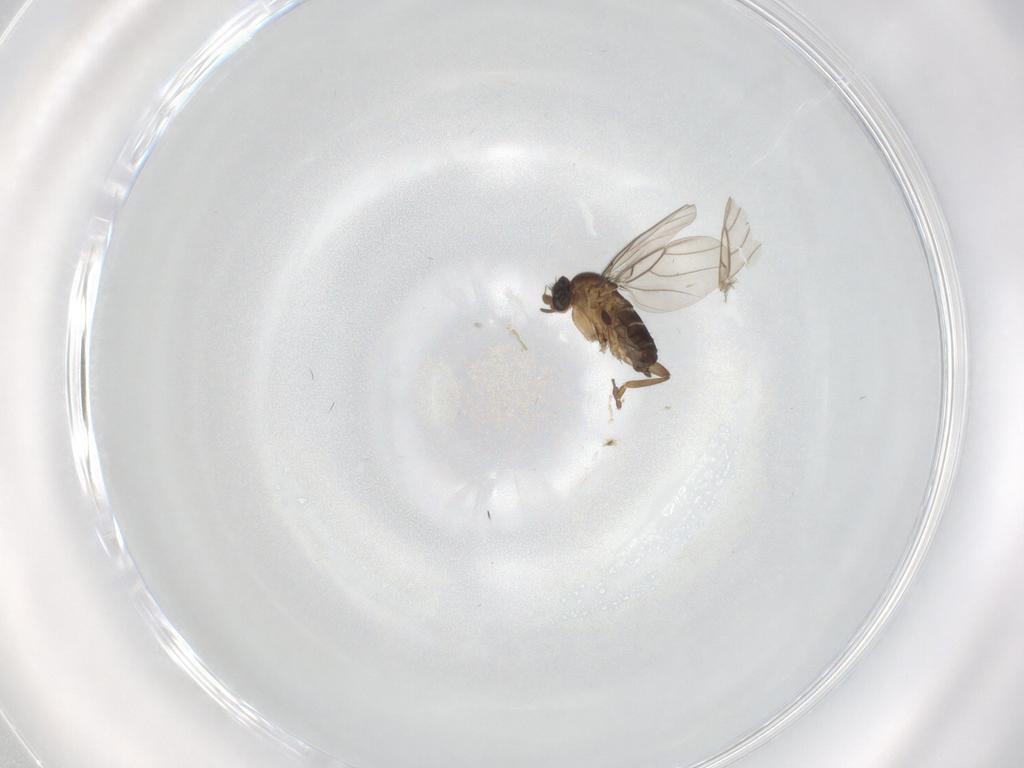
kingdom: Animalia
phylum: Arthropoda
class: Insecta
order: Diptera
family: Phoridae
